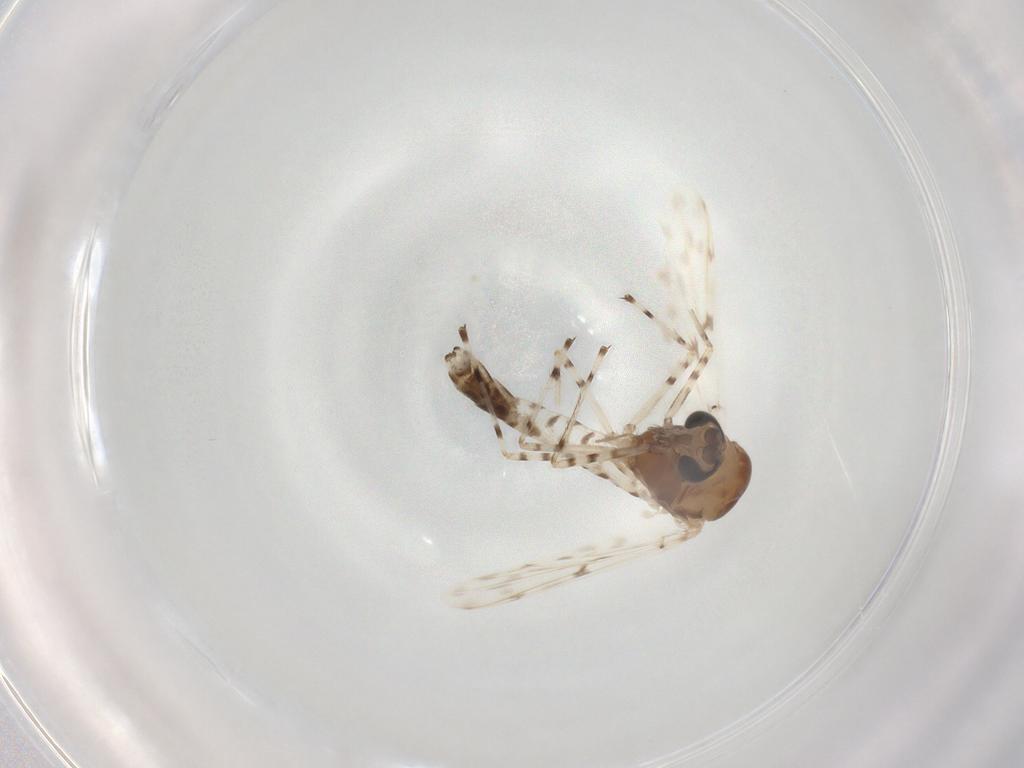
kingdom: Animalia
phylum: Arthropoda
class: Insecta
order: Diptera
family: Chironomidae
